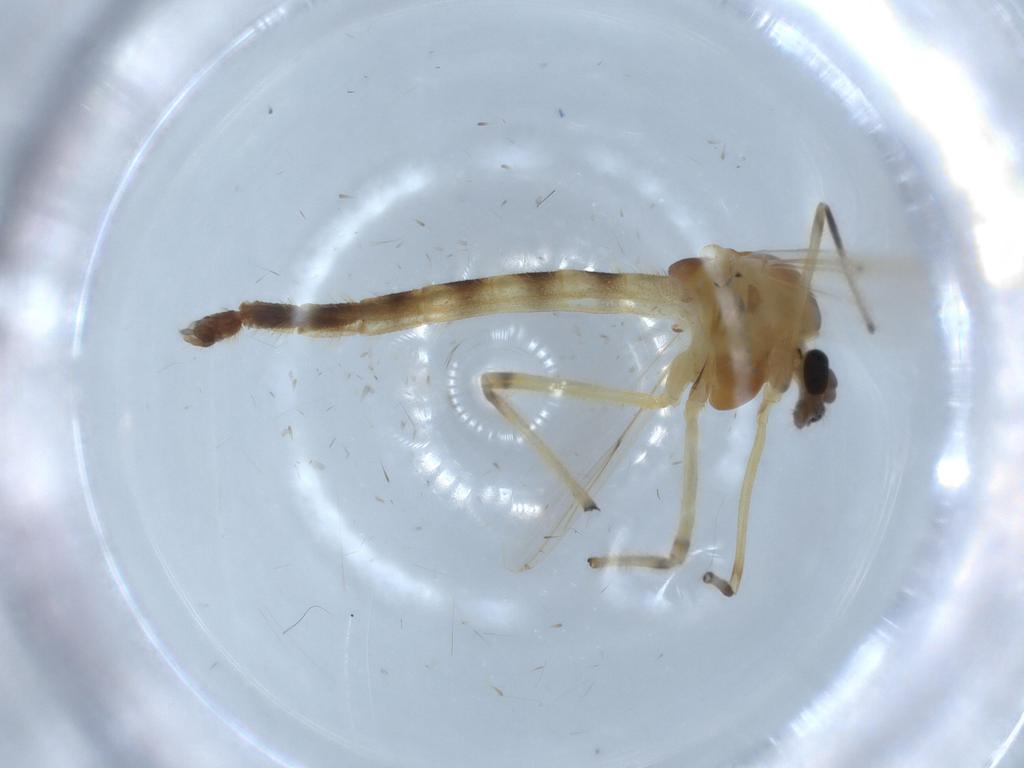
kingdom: Animalia
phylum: Arthropoda
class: Insecta
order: Diptera
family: Chironomidae
